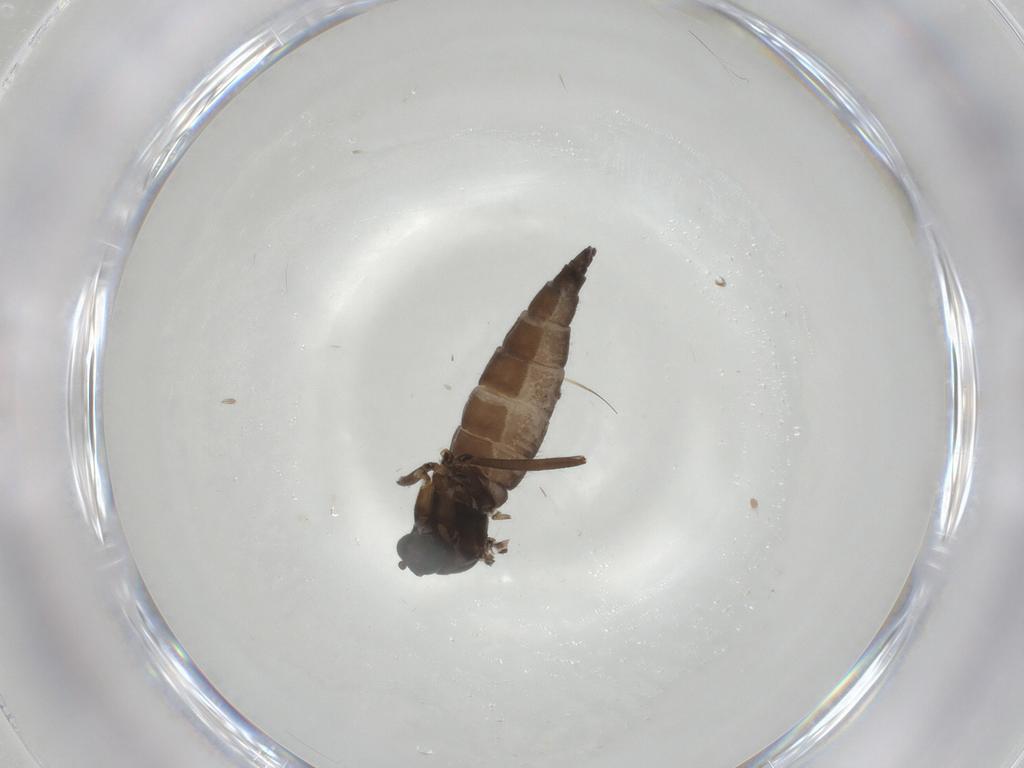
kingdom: Animalia
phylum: Arthropoda
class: Insecta
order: Diptera
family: Sciaridae
